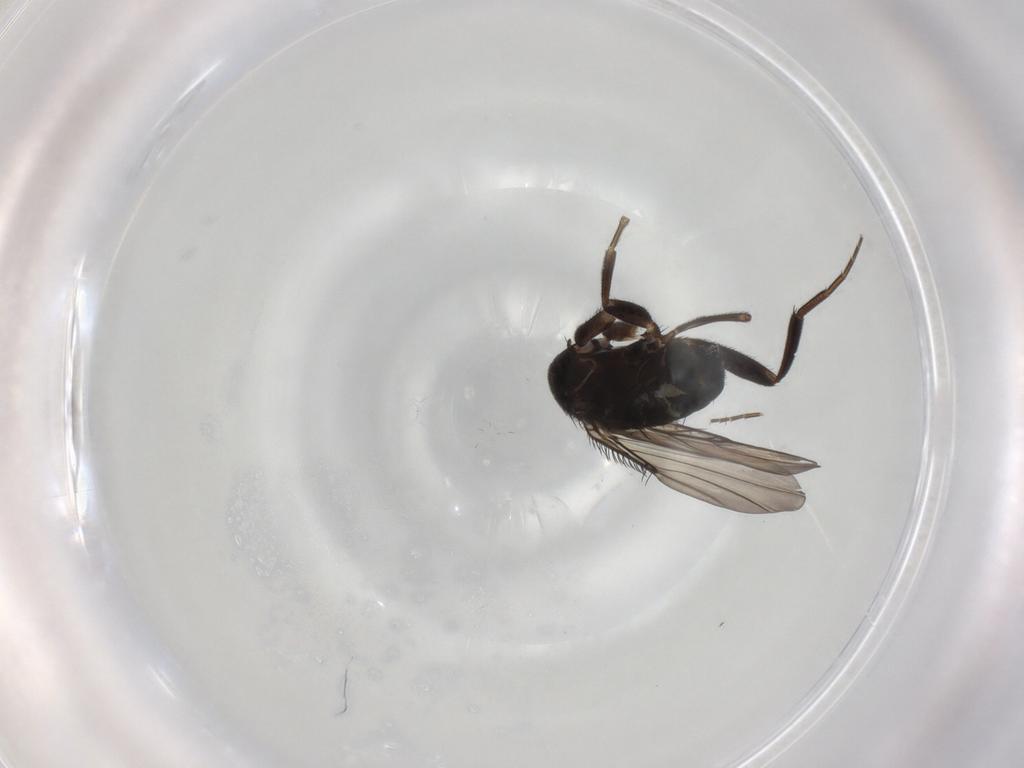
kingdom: Animalia
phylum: Arthropoda
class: Insecta
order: Diptera
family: Phoridae
